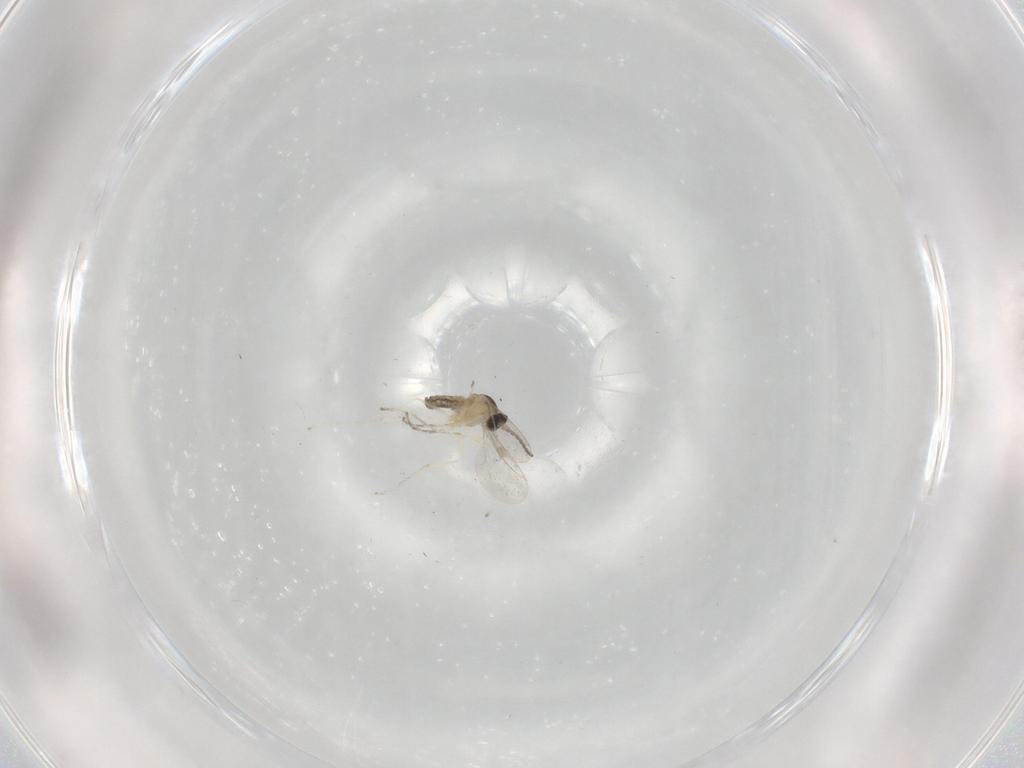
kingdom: Animalia
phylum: Arthropoda
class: Insecta
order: Diptera
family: Cecidomyiidae
